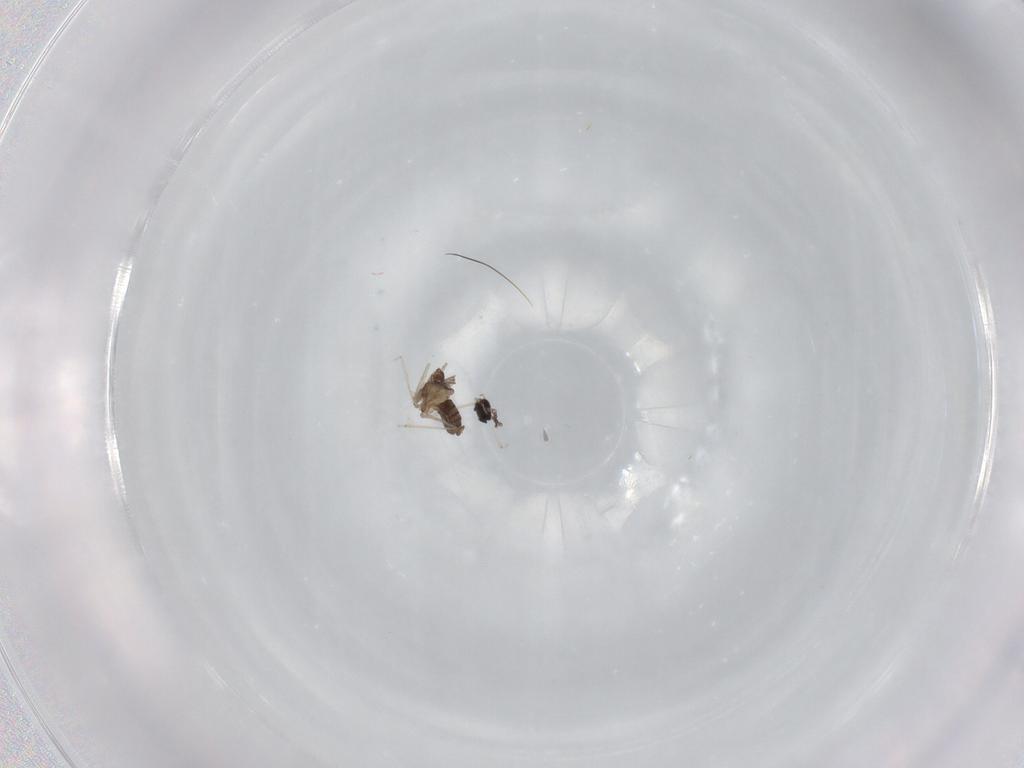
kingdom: Animalia
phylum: Arthropoda
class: Insecta
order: Diptera
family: Cecidomyiidae
